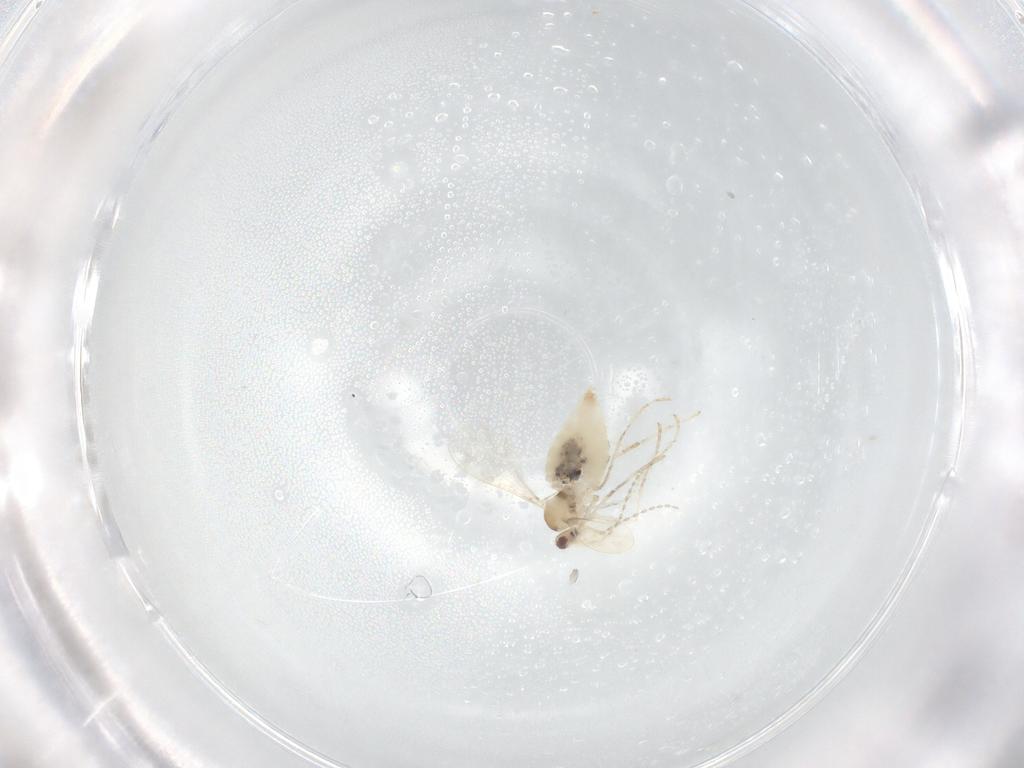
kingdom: Animalia
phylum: Arthropoda
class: Insecta
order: Diptera
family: Cecidomyiidae
